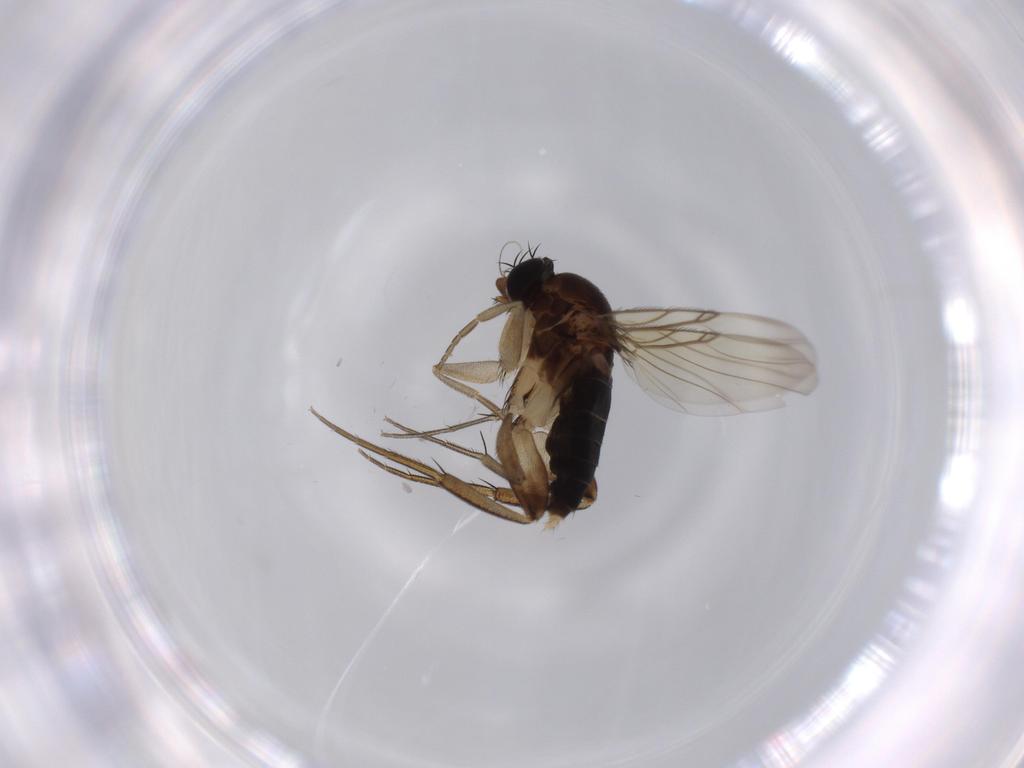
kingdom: Animalia
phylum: Arthropoda
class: Insecta
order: Diptera
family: Phoridae
